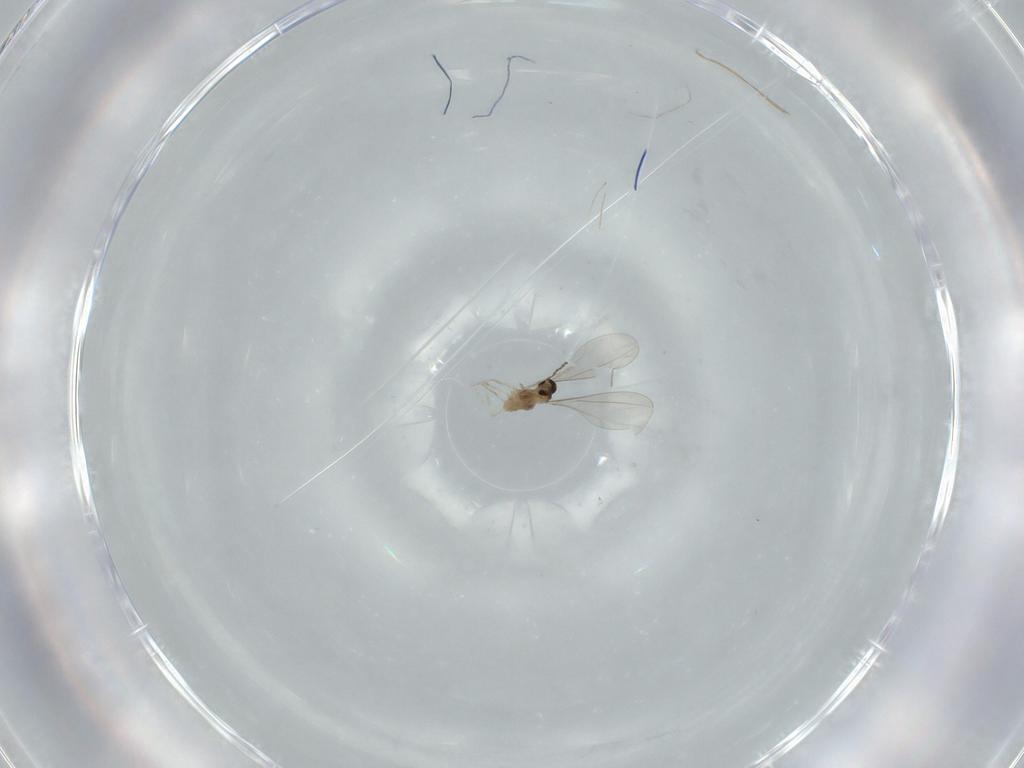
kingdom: Animalia
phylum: Arthropoda
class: Insecta
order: Diptera
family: Cecidomyiidae
